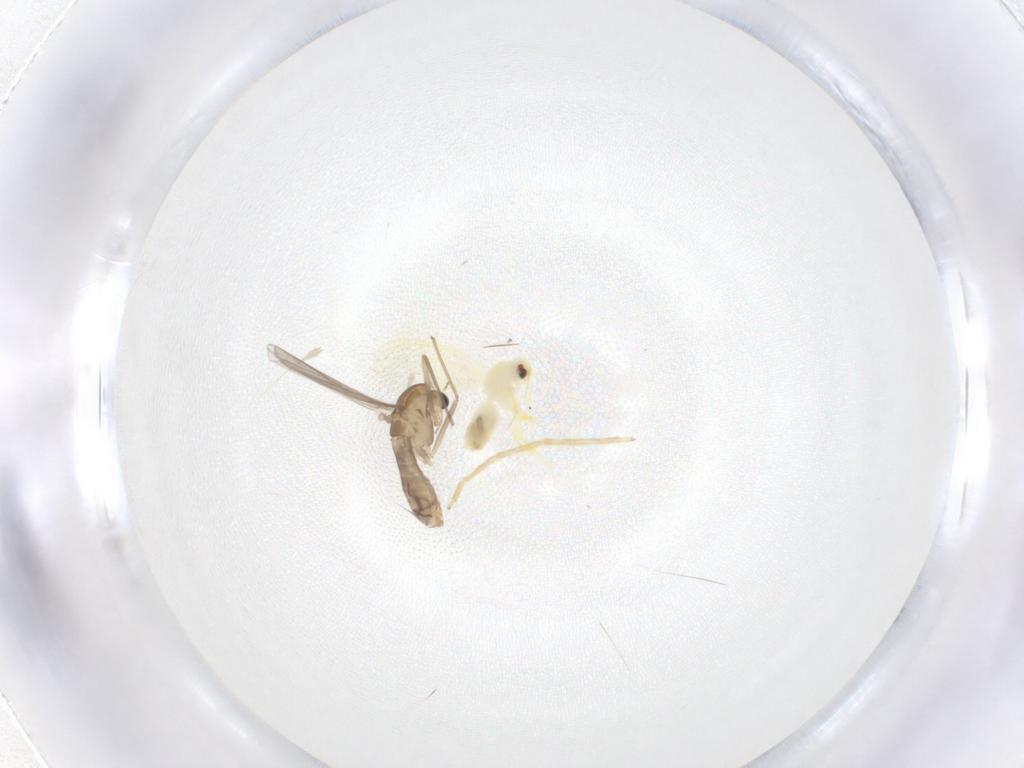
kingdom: Animalia
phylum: Arthropoda
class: Insecta
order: Diptera
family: Chironomidae
